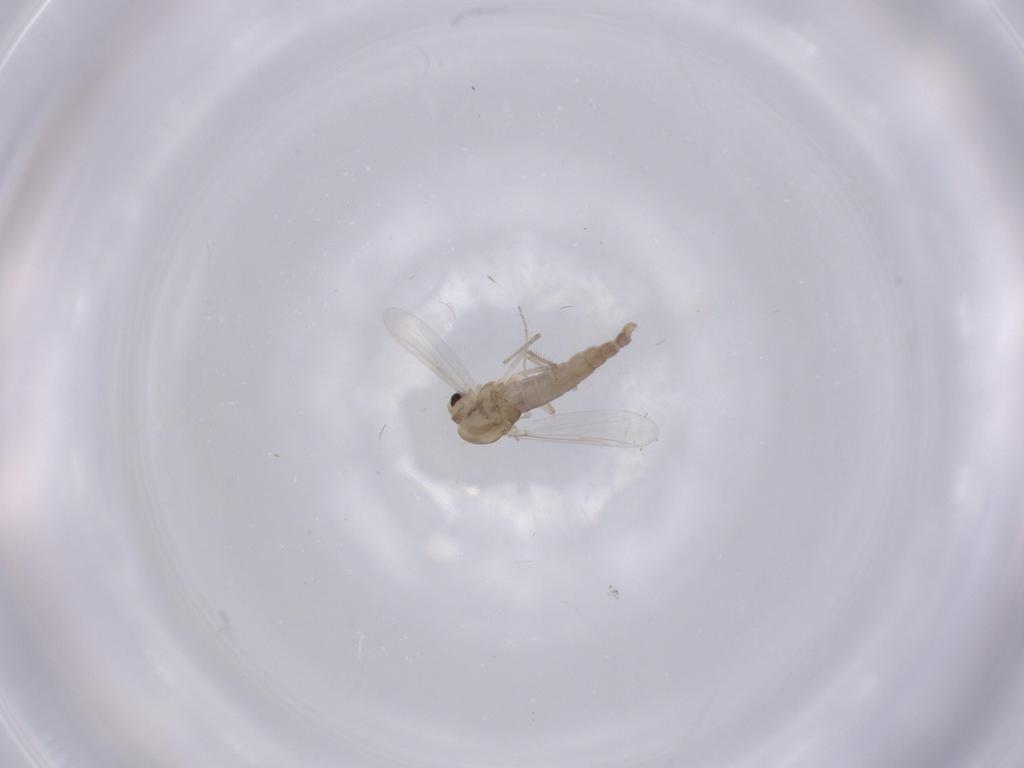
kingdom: Animalia
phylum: Arthropoda
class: Insecta
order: Diptera
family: Chironomidae
